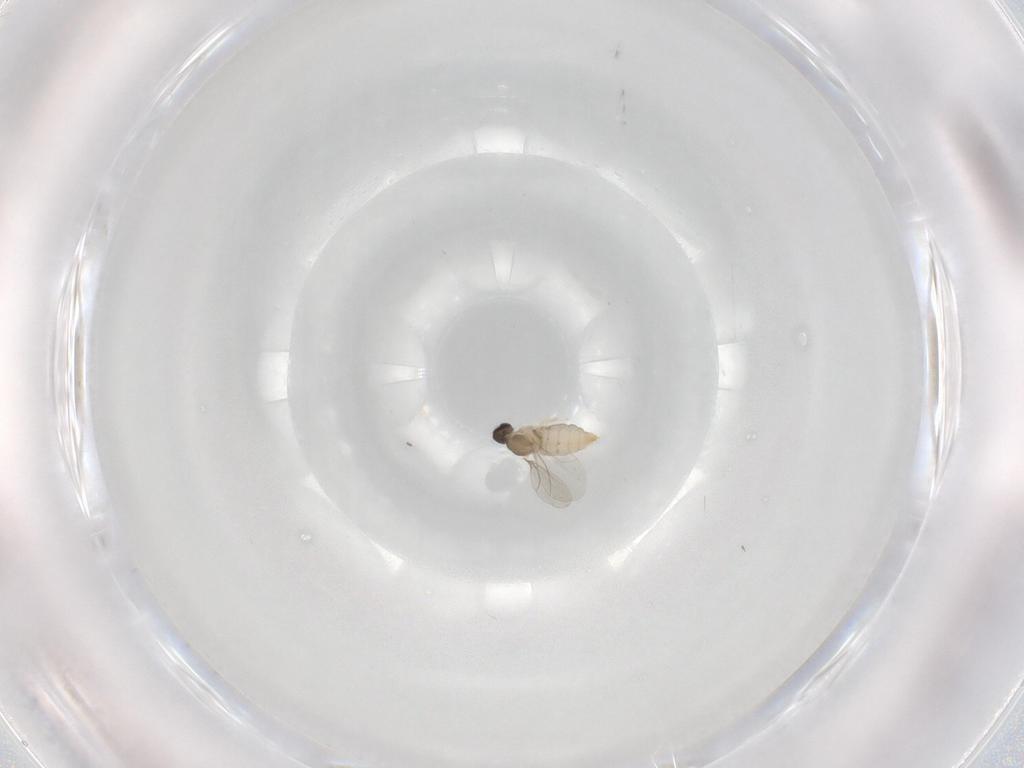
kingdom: Animalia
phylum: Arthropoda
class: Insecta
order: Diptera
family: Cecidomyiidae
